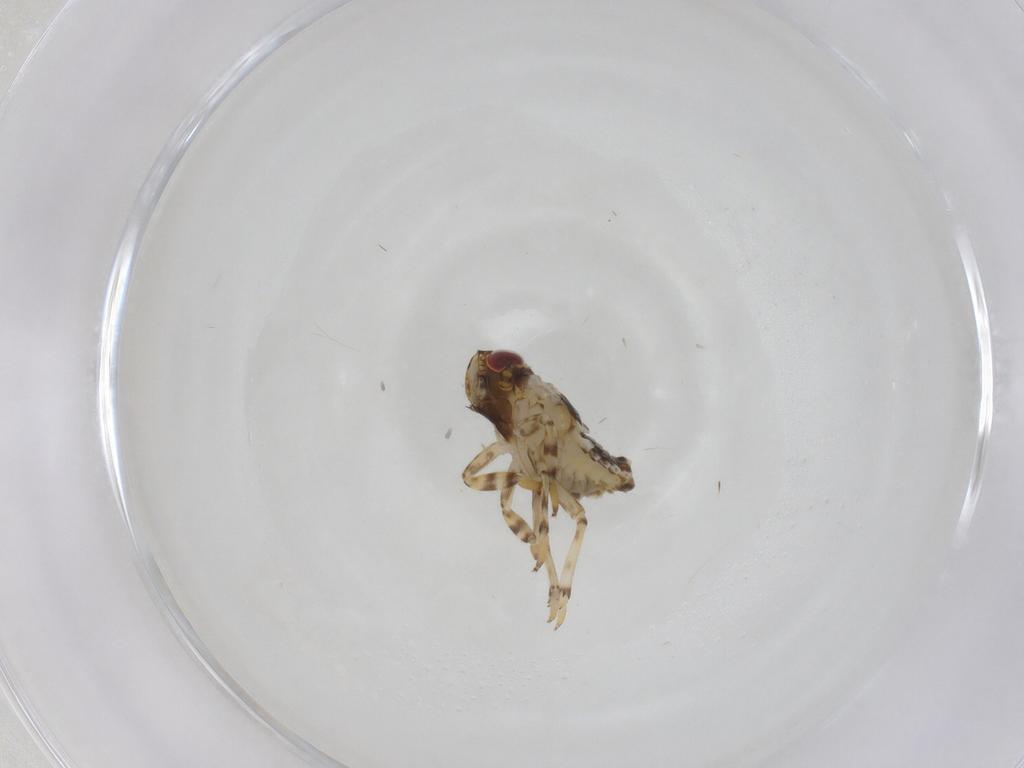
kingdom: Animalia
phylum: Arthropoda
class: Insecta
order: Hemiptera
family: Issidae
